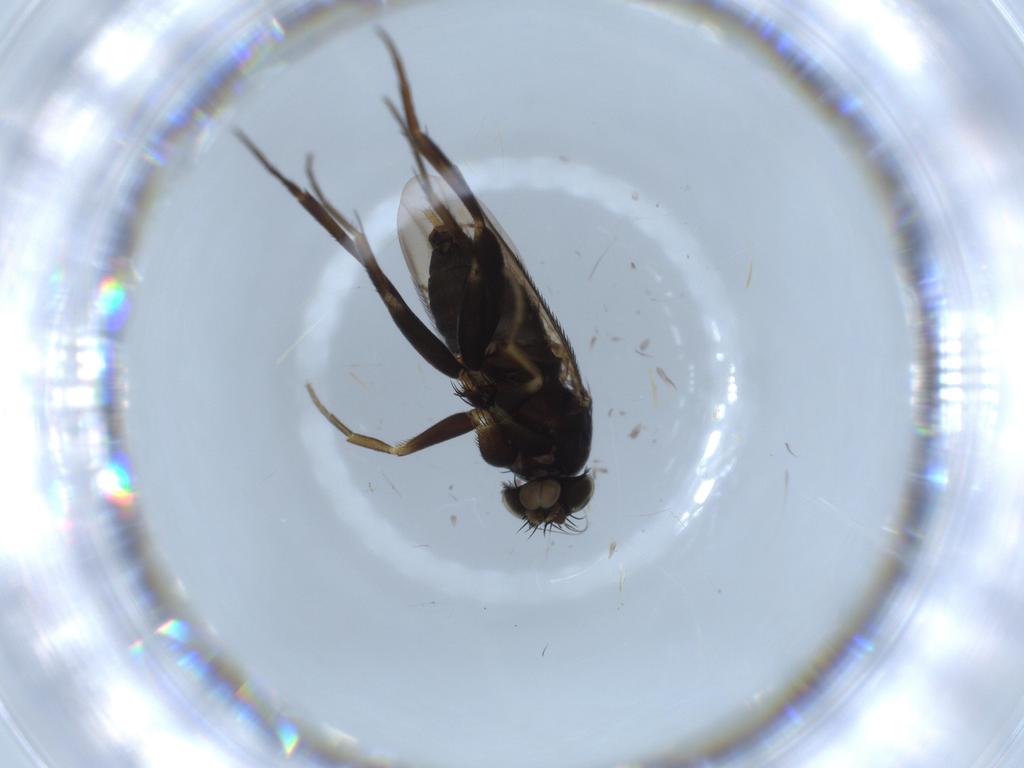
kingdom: Animalia
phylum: Arthropoda
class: Insecta
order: Diptera
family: Phoridae
